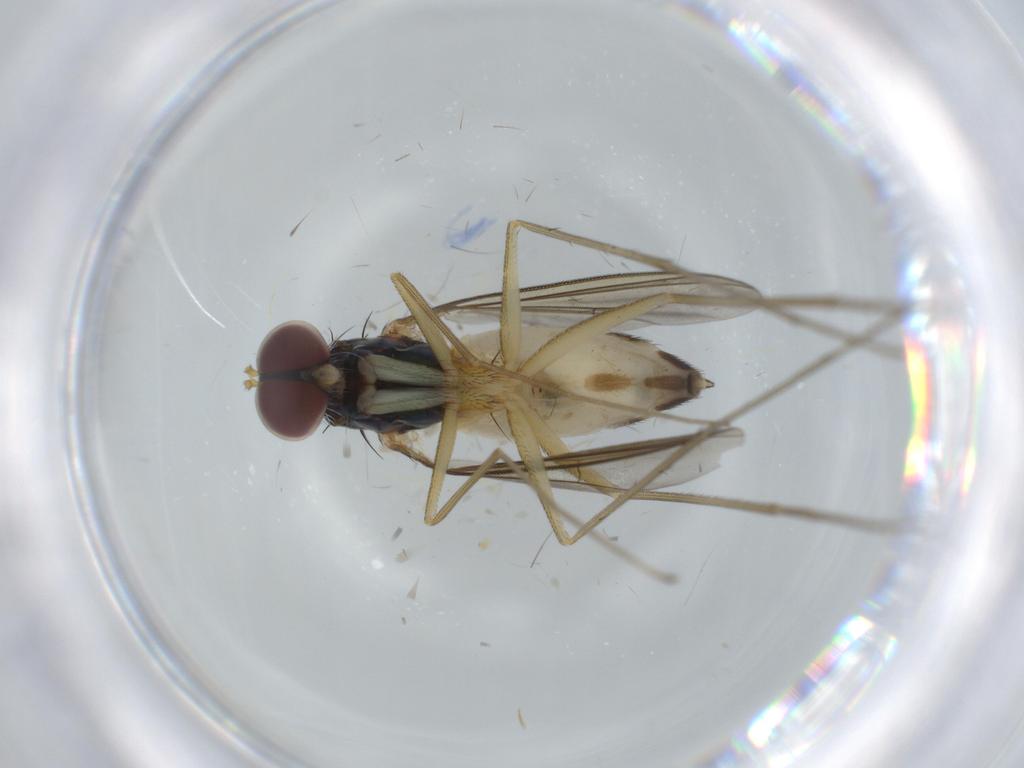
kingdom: Animalia
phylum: Arthropoda
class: Insecta
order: Diptera
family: Dolichopodidae
